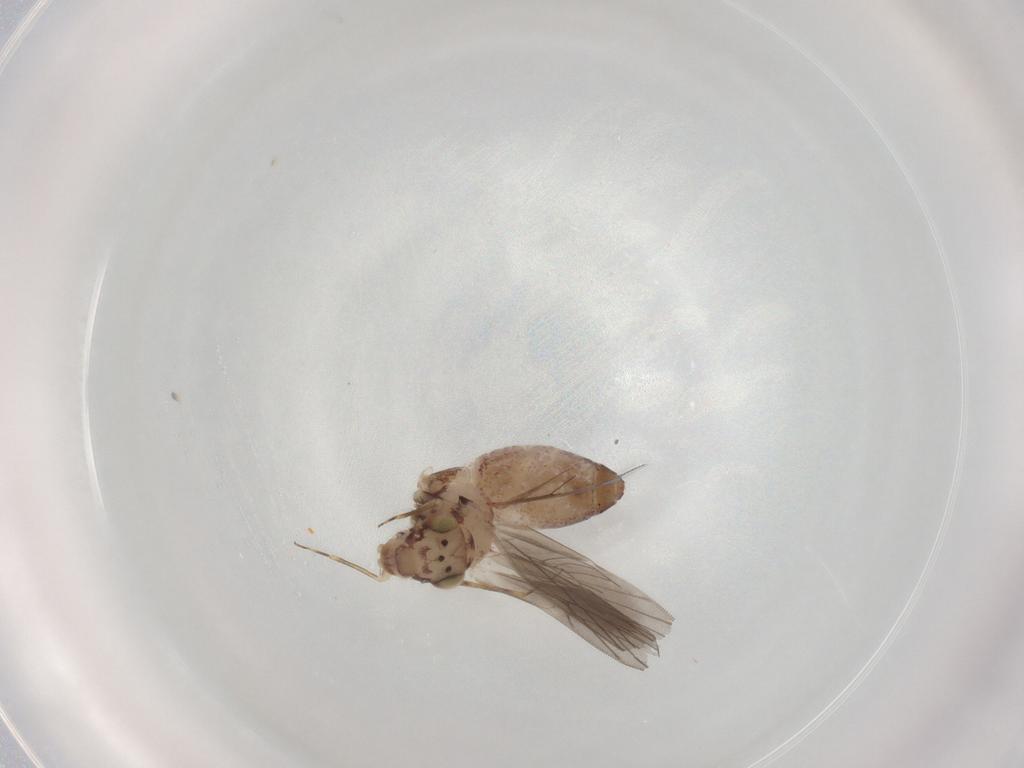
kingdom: Animalia
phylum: Arthropoda
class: Insecta
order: Psocodea
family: Lepidopsocidae
